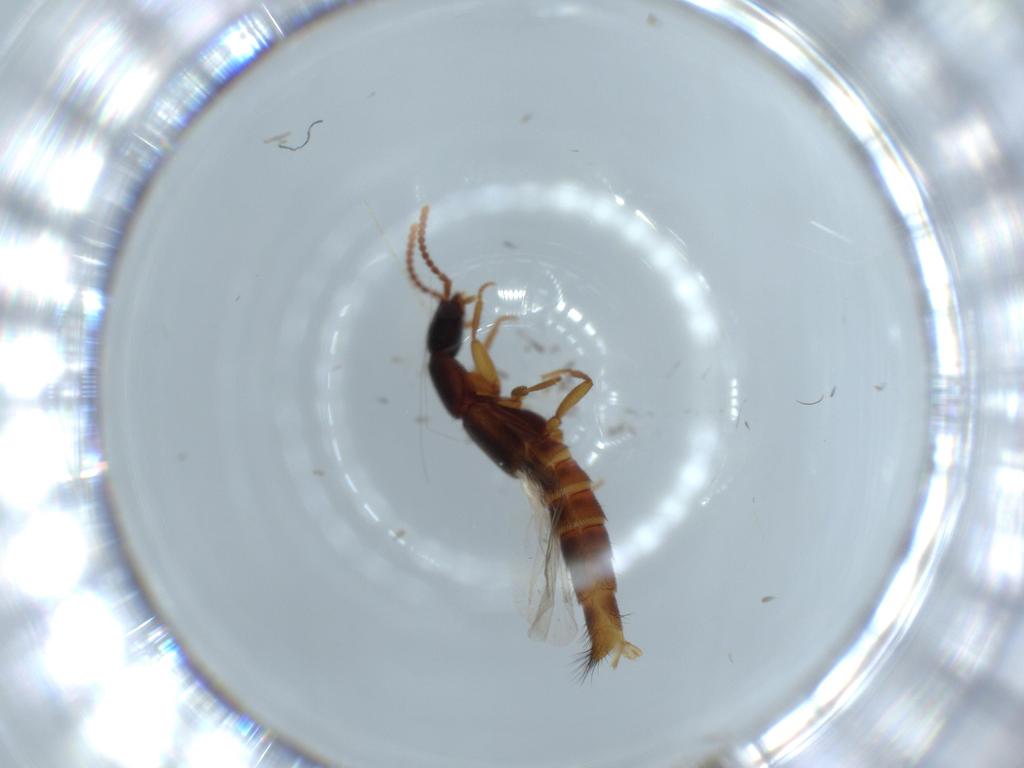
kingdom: Animalia
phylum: Arthropoda
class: Insecta
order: Coleoptera
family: Staphylinidae
